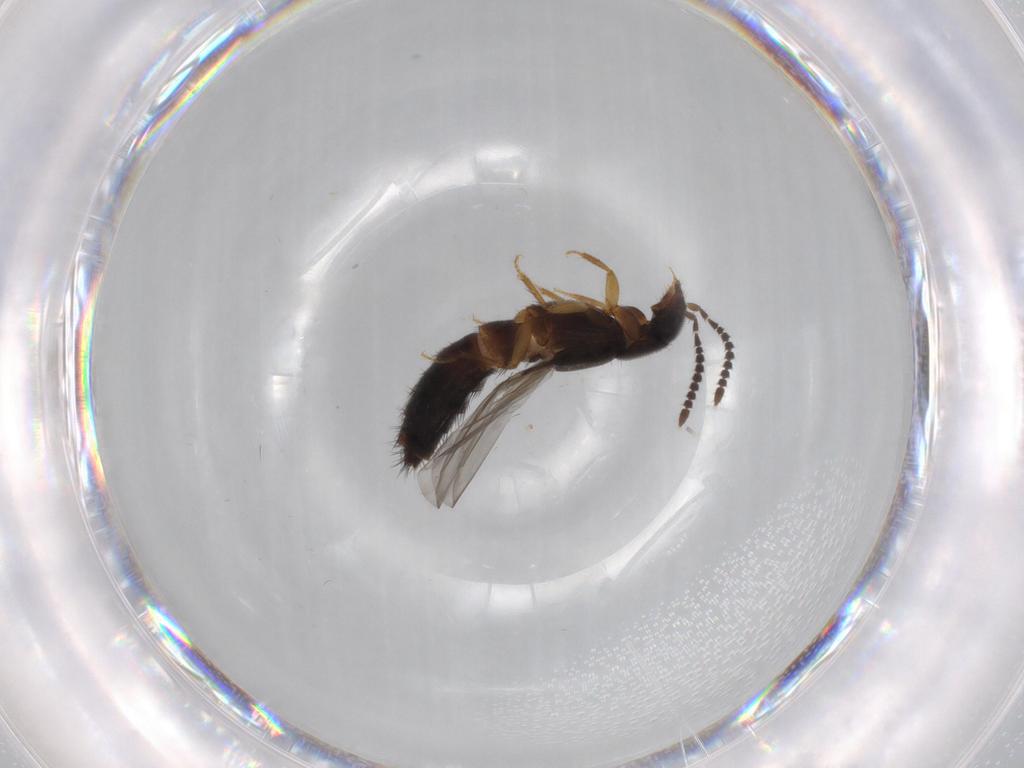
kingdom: Animalia
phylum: Arthropoda
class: Insecta
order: Coleoptera
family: Staphylinidae
